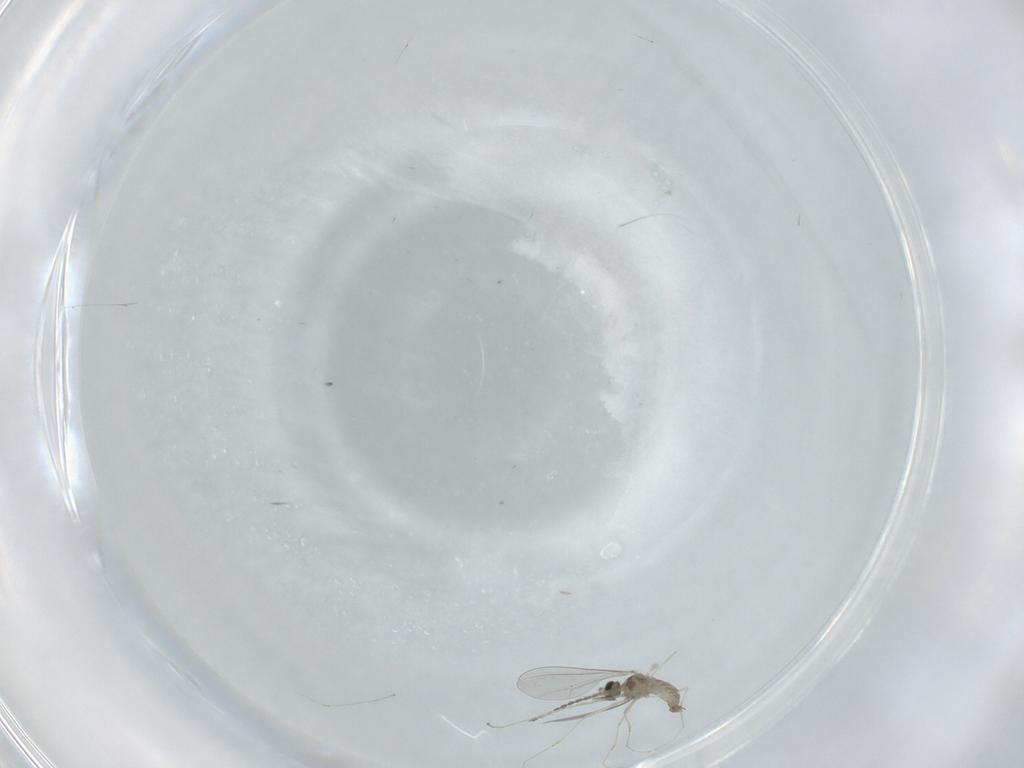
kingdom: Animalia
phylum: Arthropoda
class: Insecta
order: Diptera
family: Cecidomyiidae
